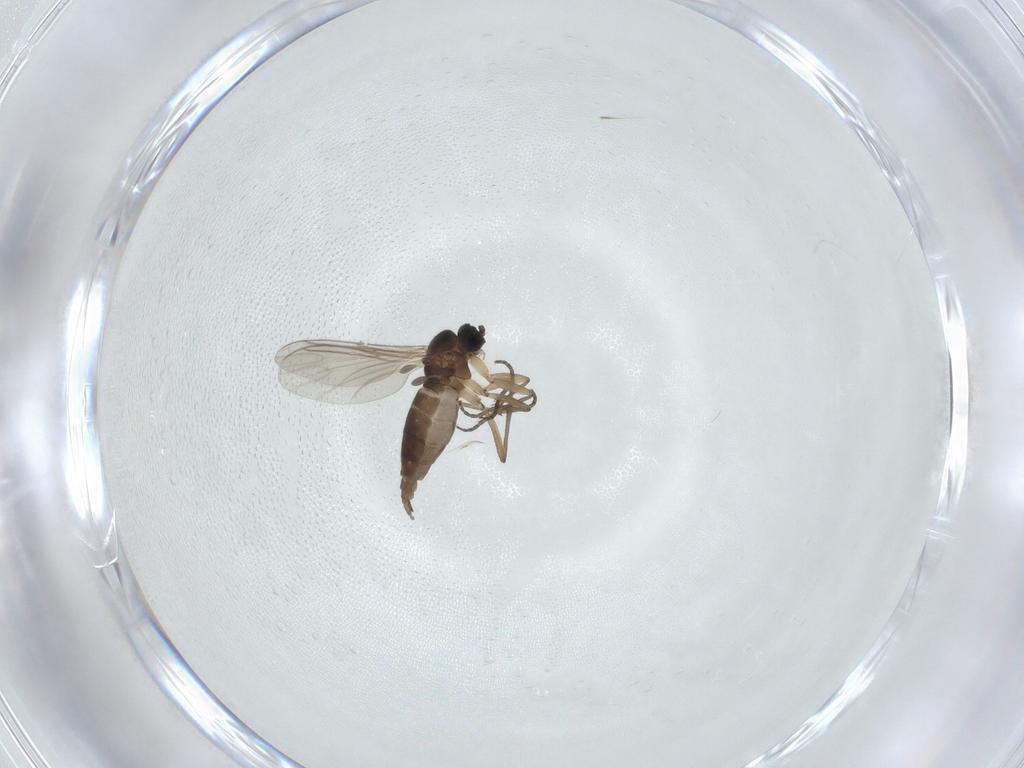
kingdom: Animalia
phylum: Arthropoda
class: Insecta
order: Diptera
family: Sciaridae
